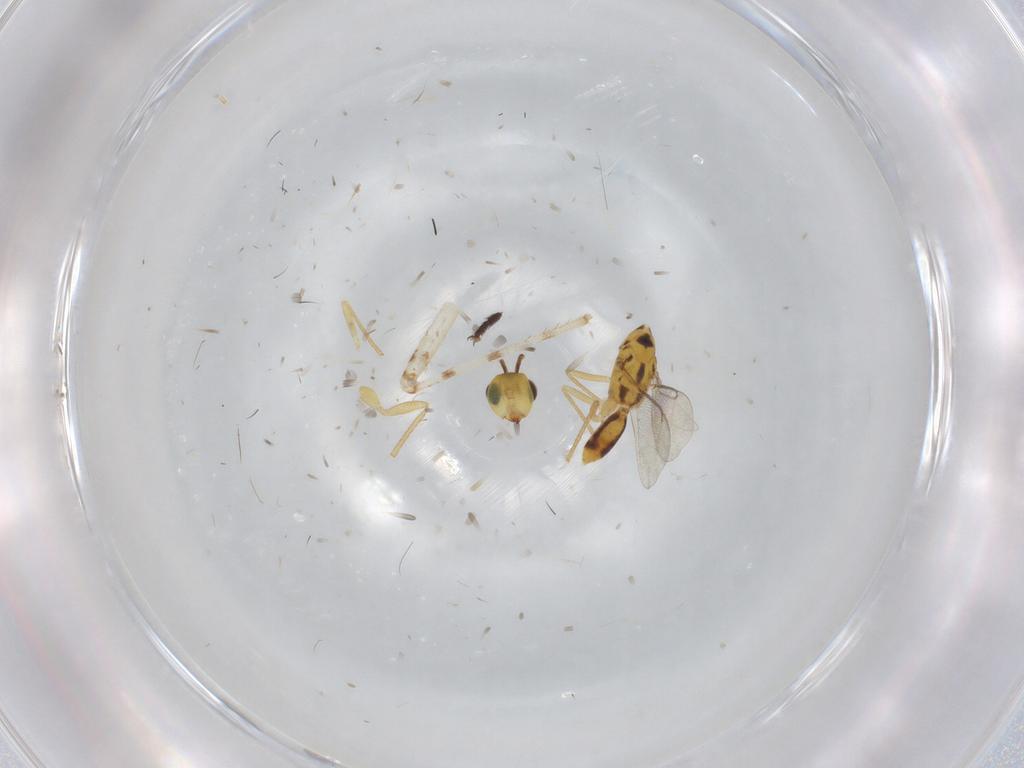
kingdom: Animalia
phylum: Arthropoda
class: Insecta
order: Hymenoptera
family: Eulophidae
